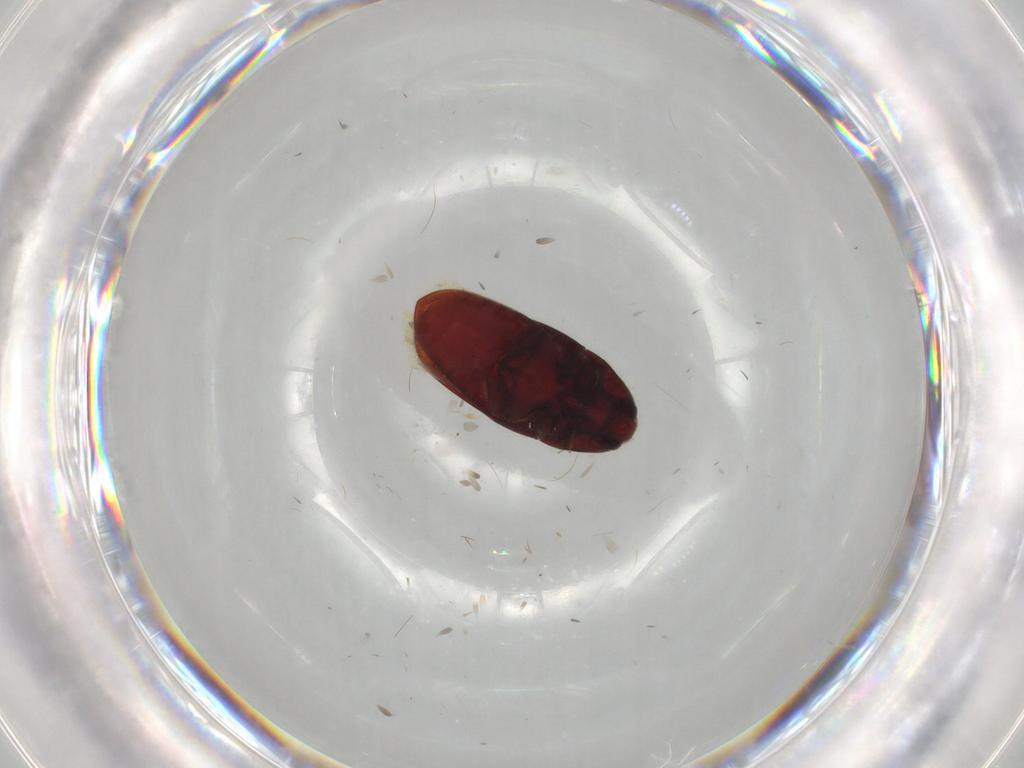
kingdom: Animalia
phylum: Arthropoda
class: Insecta
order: Coleoptera
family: Throscidae
